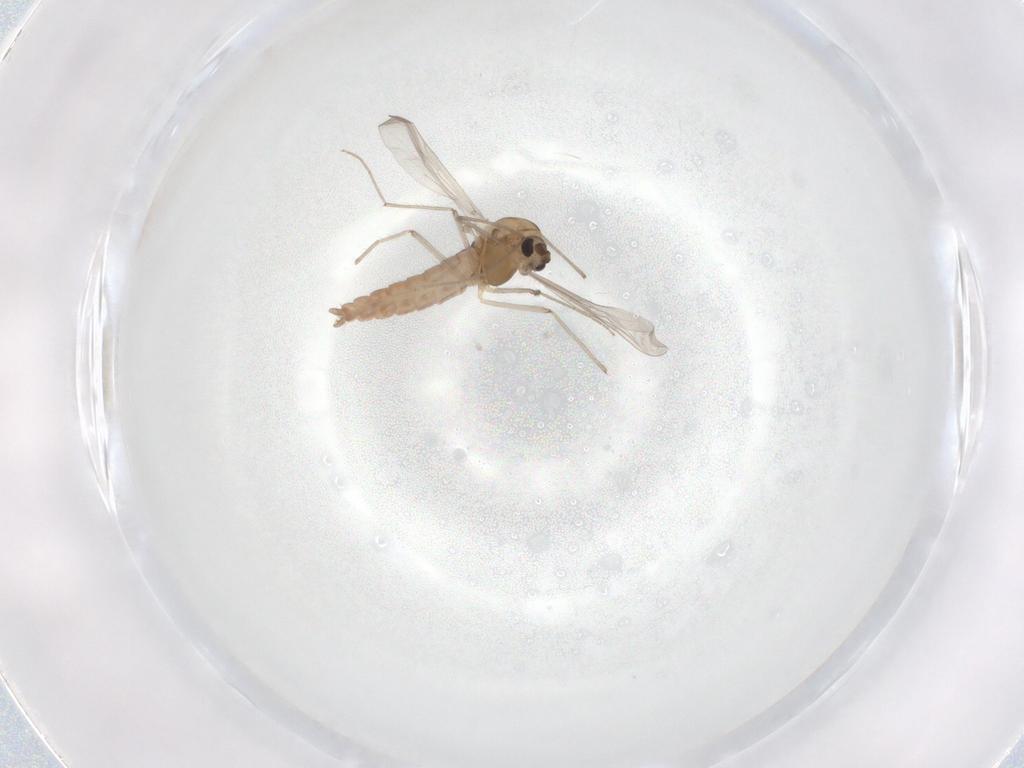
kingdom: Animalia
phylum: Arthropoda
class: Insecta
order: Diptera
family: Chironomidae
